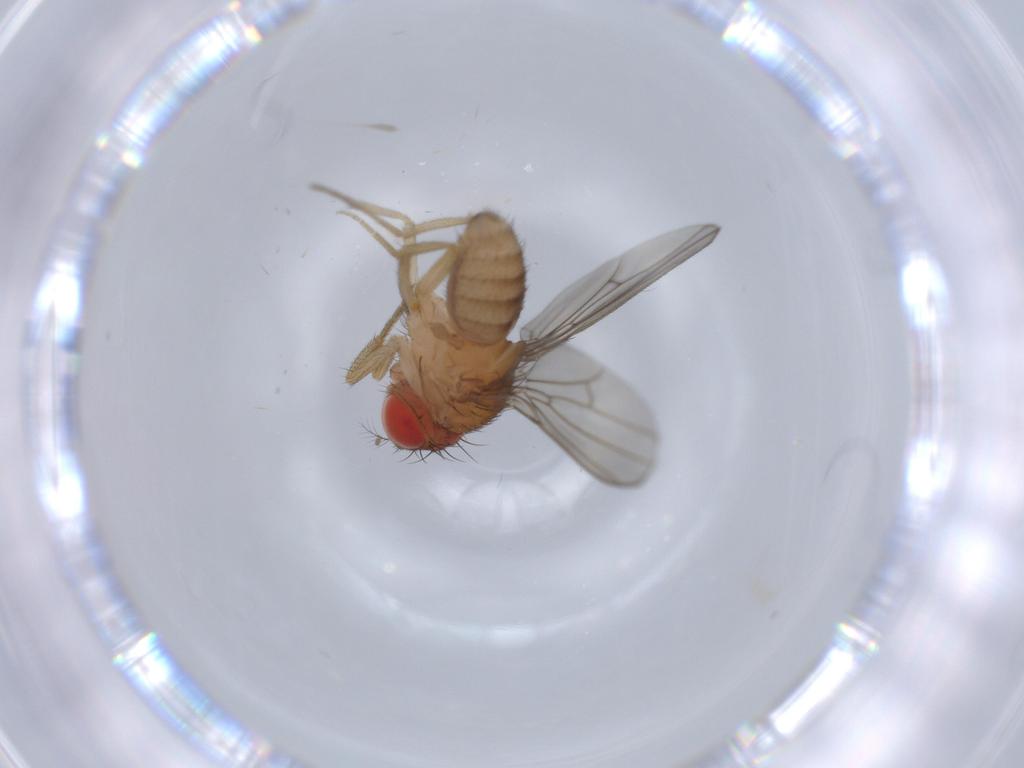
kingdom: Animalia
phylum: Arthropoda
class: Insecta
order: Diptera
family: Drosophilidae
